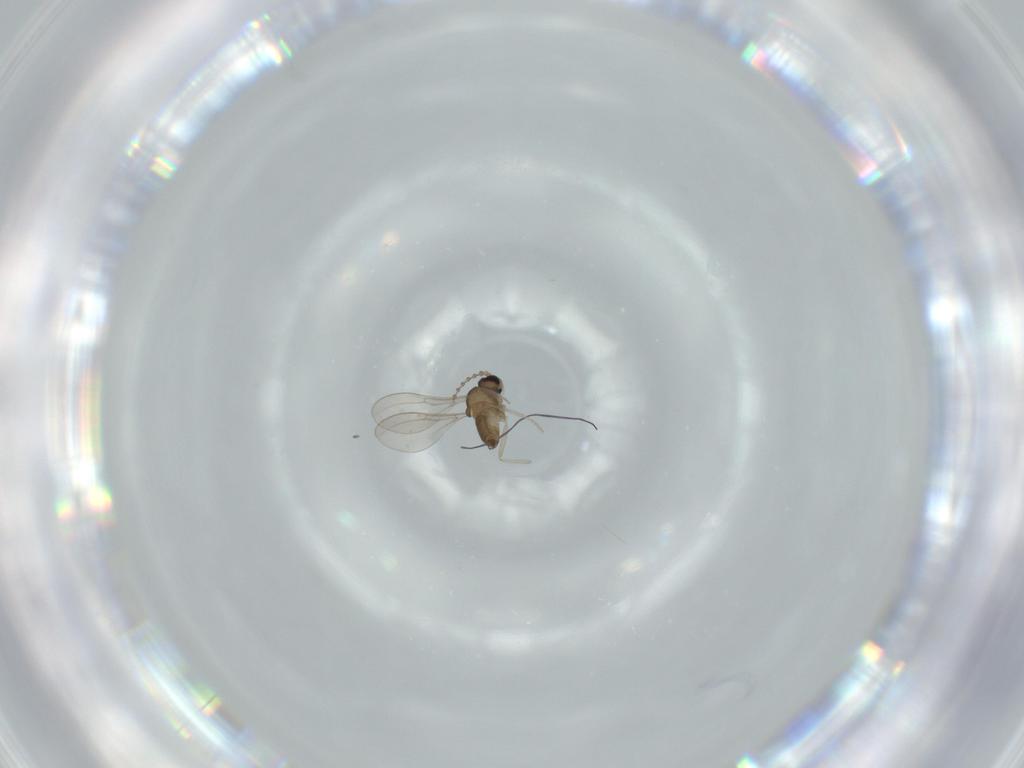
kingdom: Animalia
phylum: Arthropoda
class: Insecta
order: Diptera
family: Cecidomyiidae
